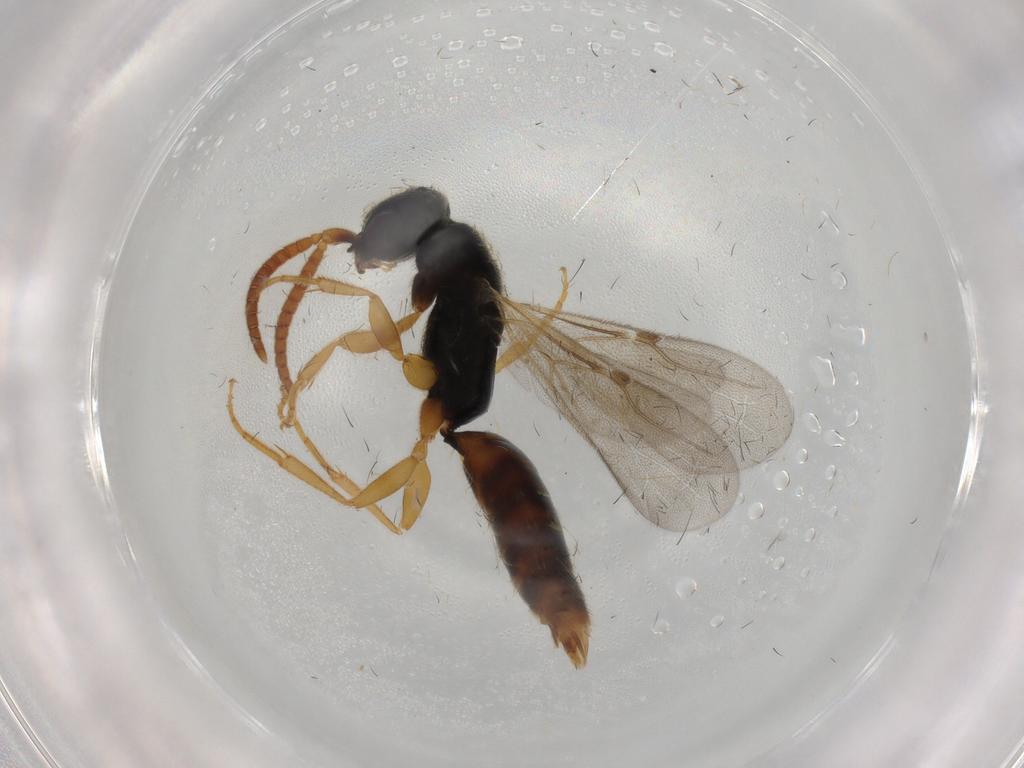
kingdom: Animalia
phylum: Arthropoda
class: Insecta
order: Hymenoptera
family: Bethylidae
